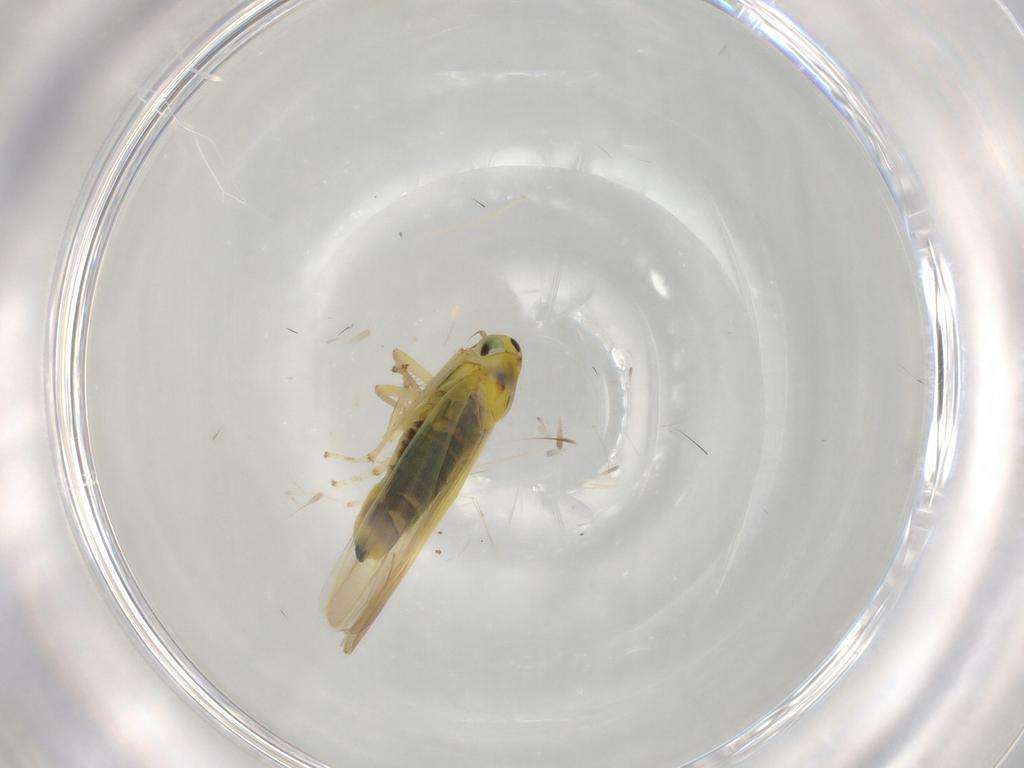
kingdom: Animalia
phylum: Arthropoda
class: Insecta
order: Hemiptera
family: Cicadellidae
